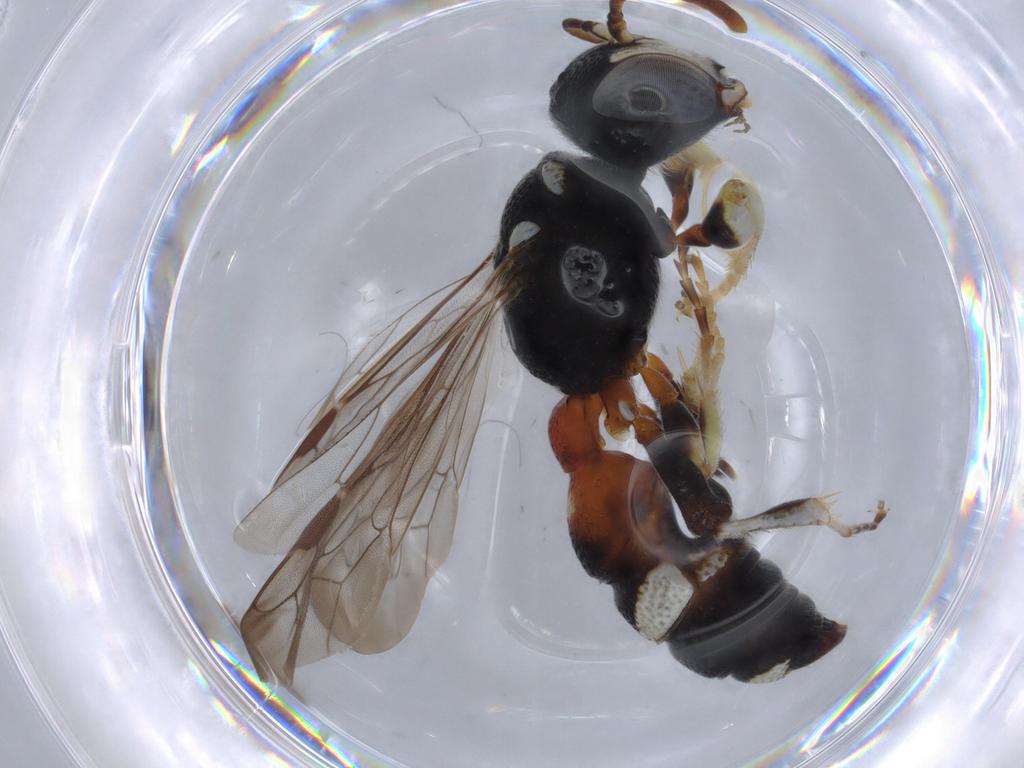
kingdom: Animalia
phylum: Arthropoda
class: Insecta
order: Hymenoptera
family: Crabronidae
